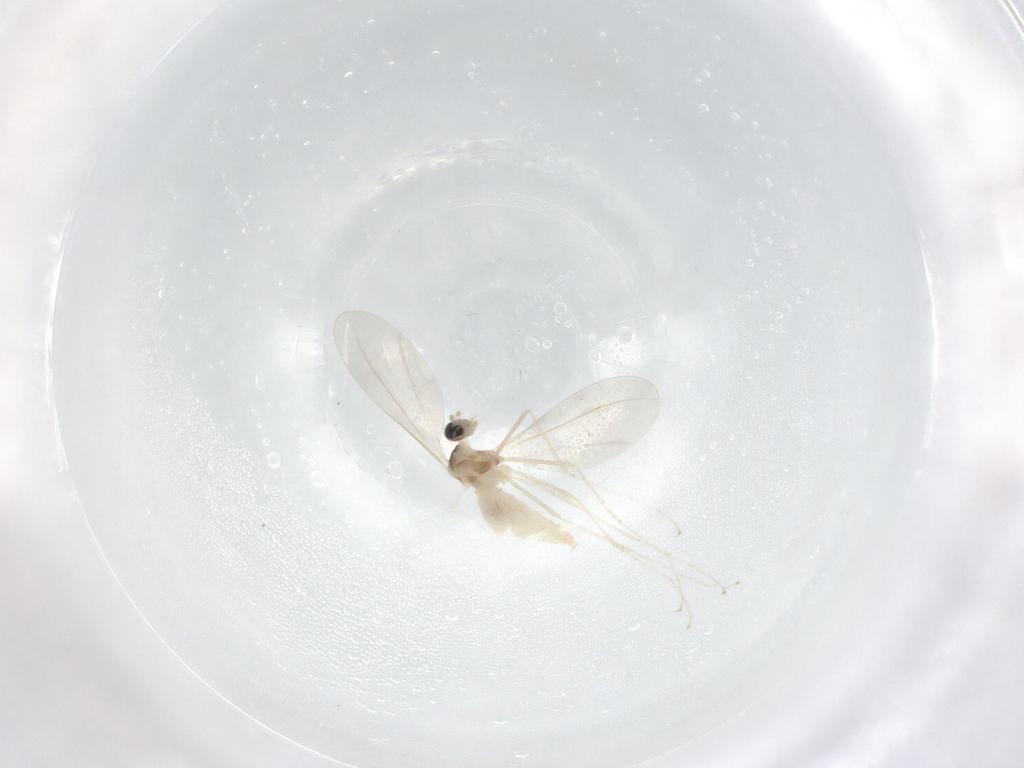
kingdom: Animalia
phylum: Arthropoda
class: Insecta
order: Diptera
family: Cecidomyiidae
